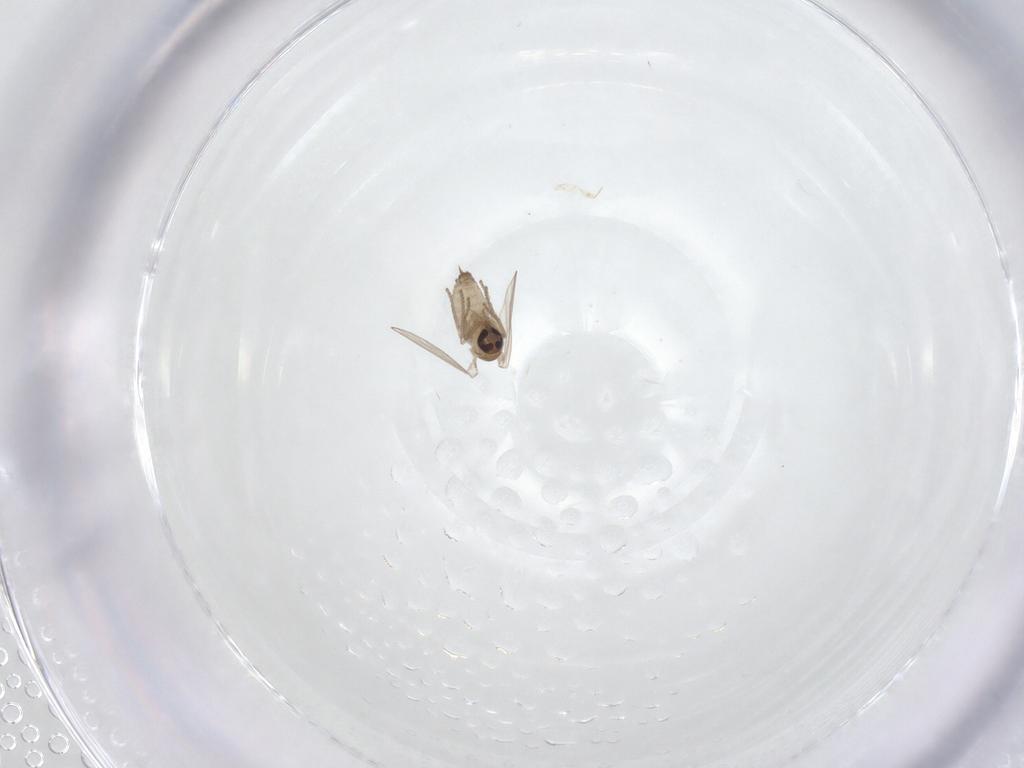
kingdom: Animalia
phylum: Arthropoda
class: Insecta
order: Diptera
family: Psychodidae
